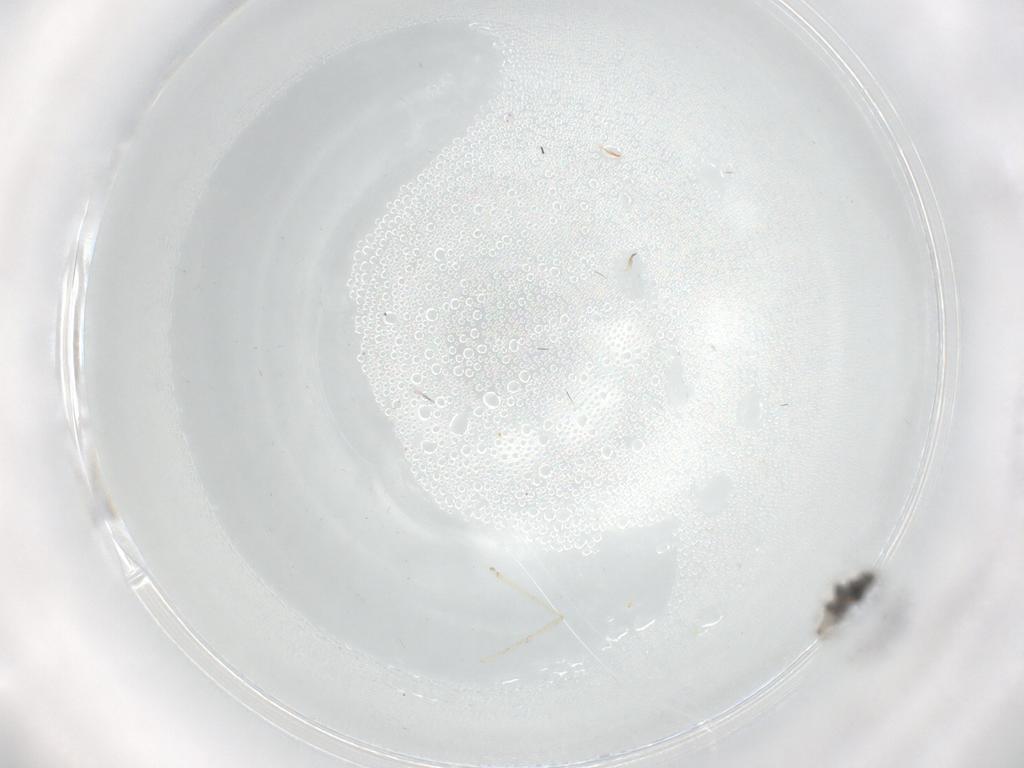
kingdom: Animalia
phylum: Arthropoda
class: Insecta
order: Diptera
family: Cecidomyiidae
